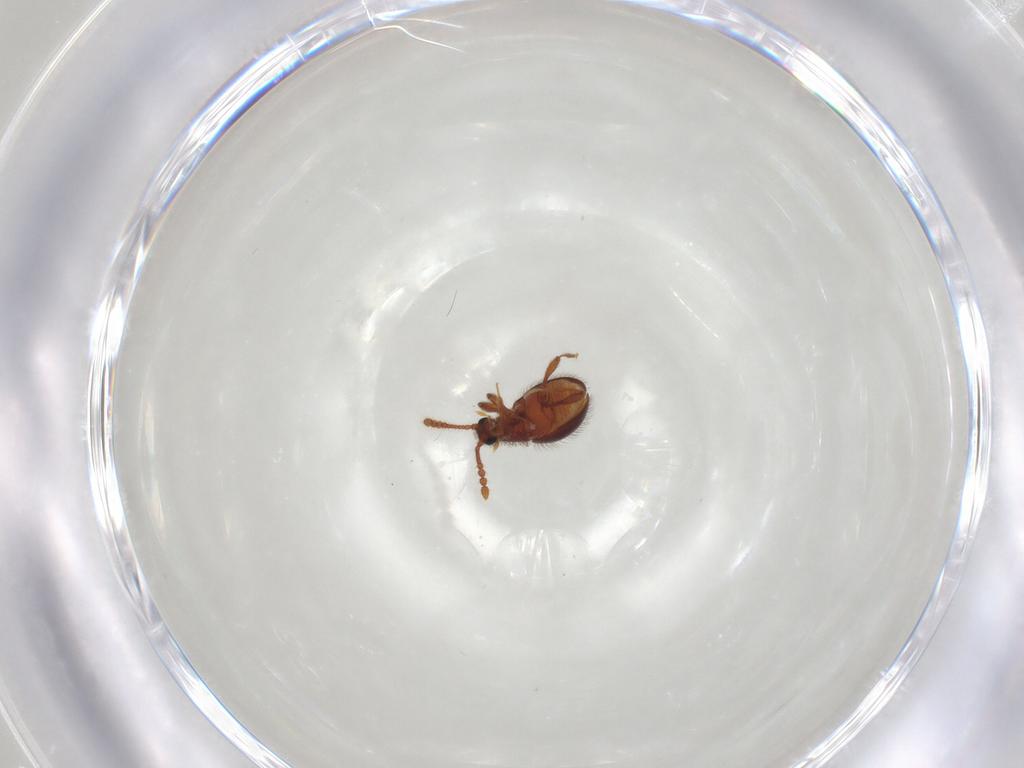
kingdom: Animalia
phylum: Arthropoda
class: Insecta
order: Coleoptera
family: Staphylinidae
